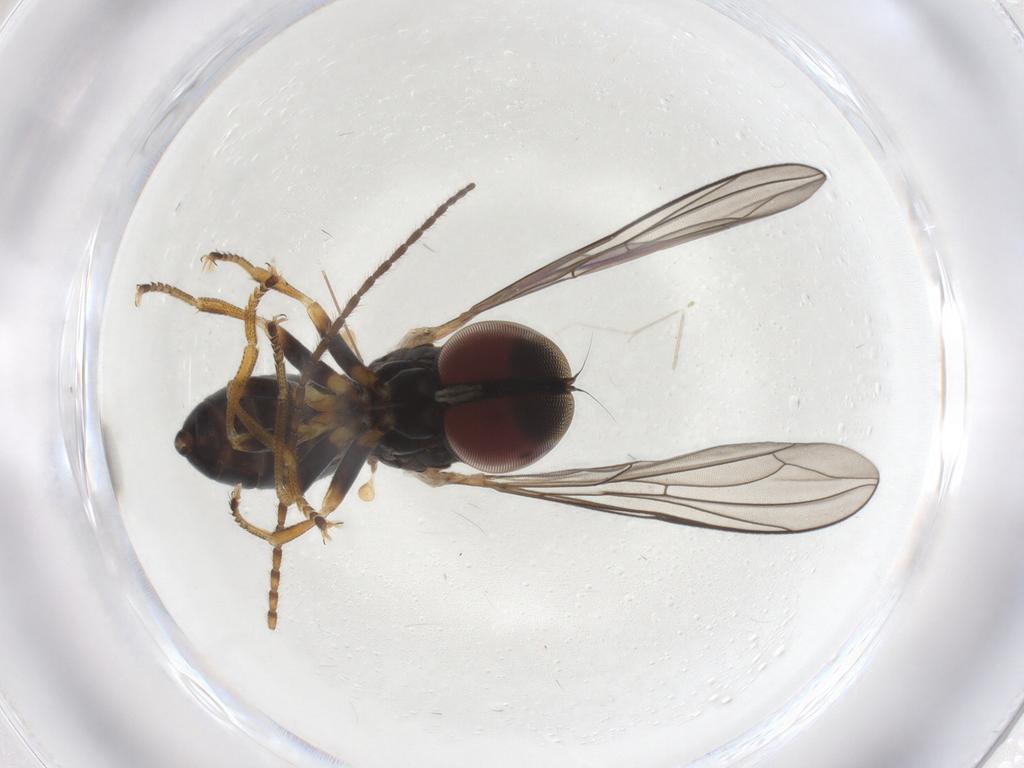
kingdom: Animalia
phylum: Arthropoda
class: Insecta
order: Diptera
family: Pipunculidae
